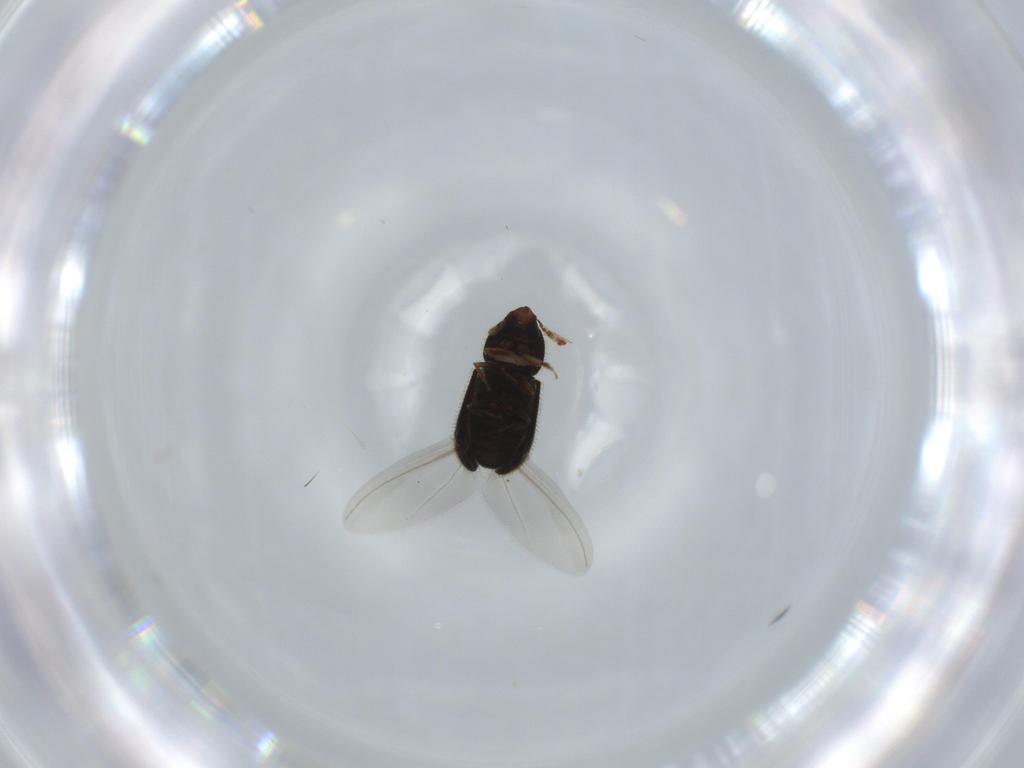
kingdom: Animalia
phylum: Arthropoda
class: Insecta
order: Coleoptera
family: Curculionidae
